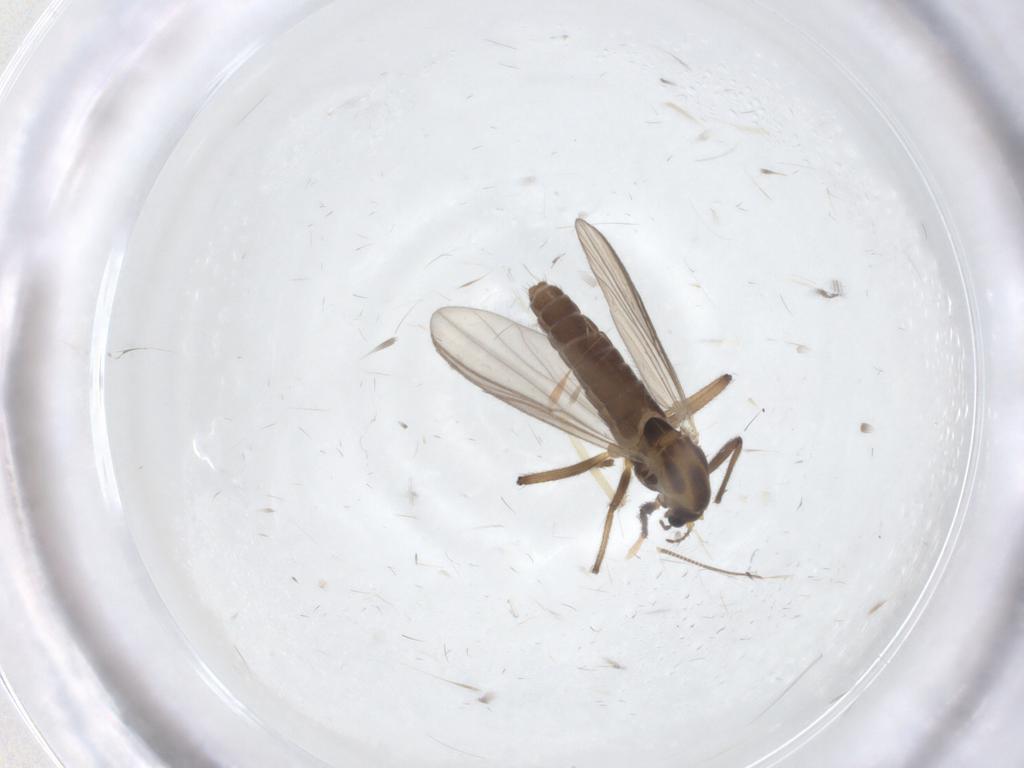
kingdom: Animalia
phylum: Arthropoda
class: Insecta
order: Diptera
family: Chironomidae
